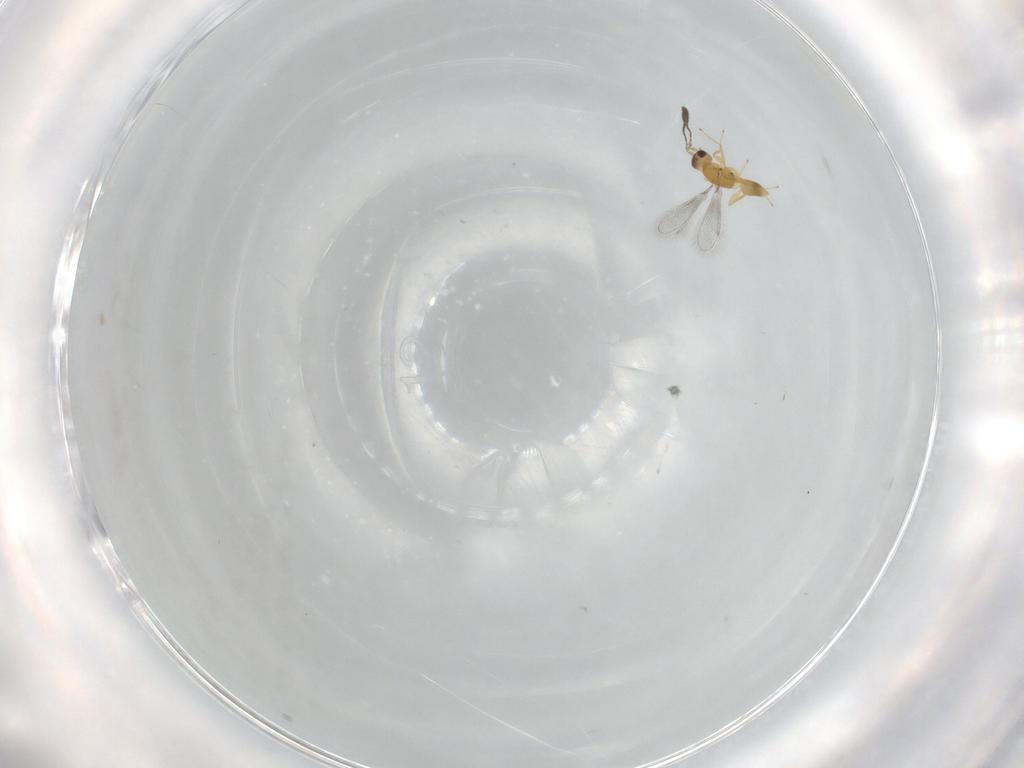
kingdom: Animalia
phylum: Arthropoda
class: Insecta
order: Hymenoptera
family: Mymaridae
